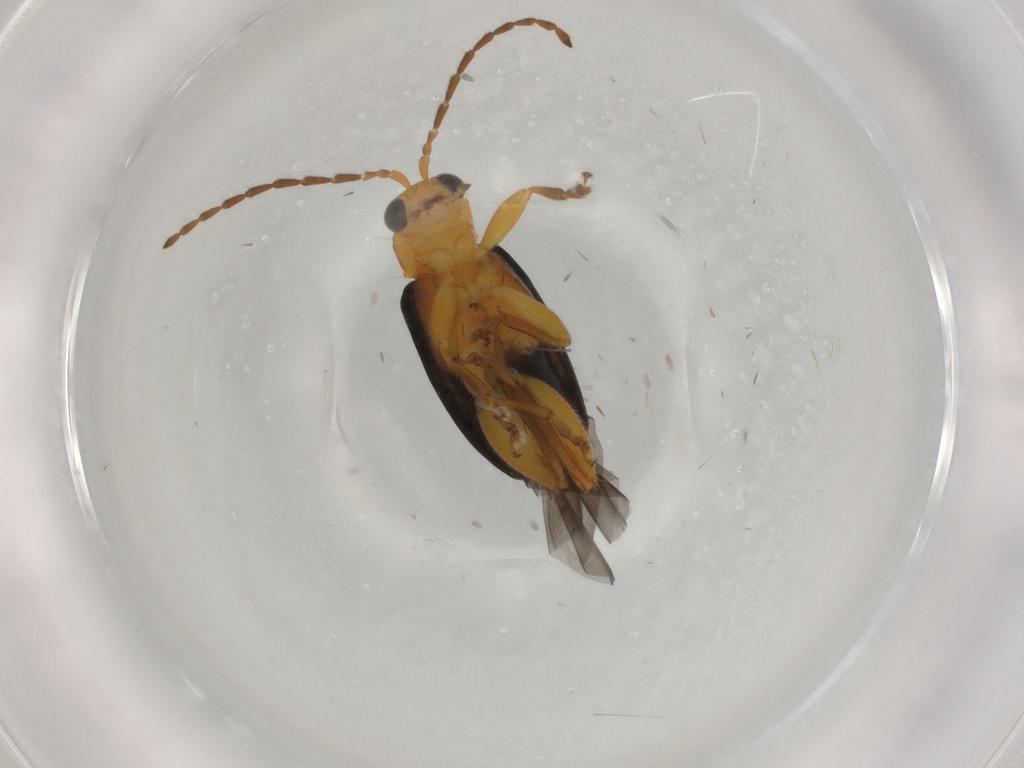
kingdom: Animalia
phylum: Arthropoda
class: Insecta
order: Coleoptera
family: Chrysomelidae
